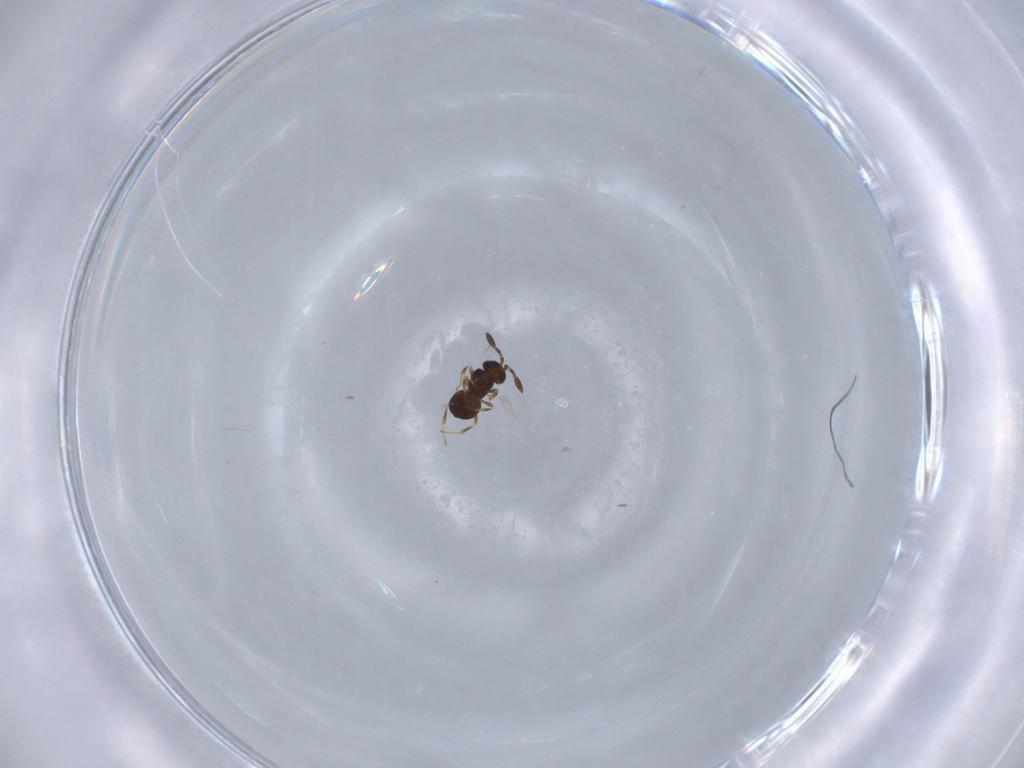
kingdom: Animalia
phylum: Arthropoda
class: Insecta
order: Hymenoptera
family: Scelionidae
